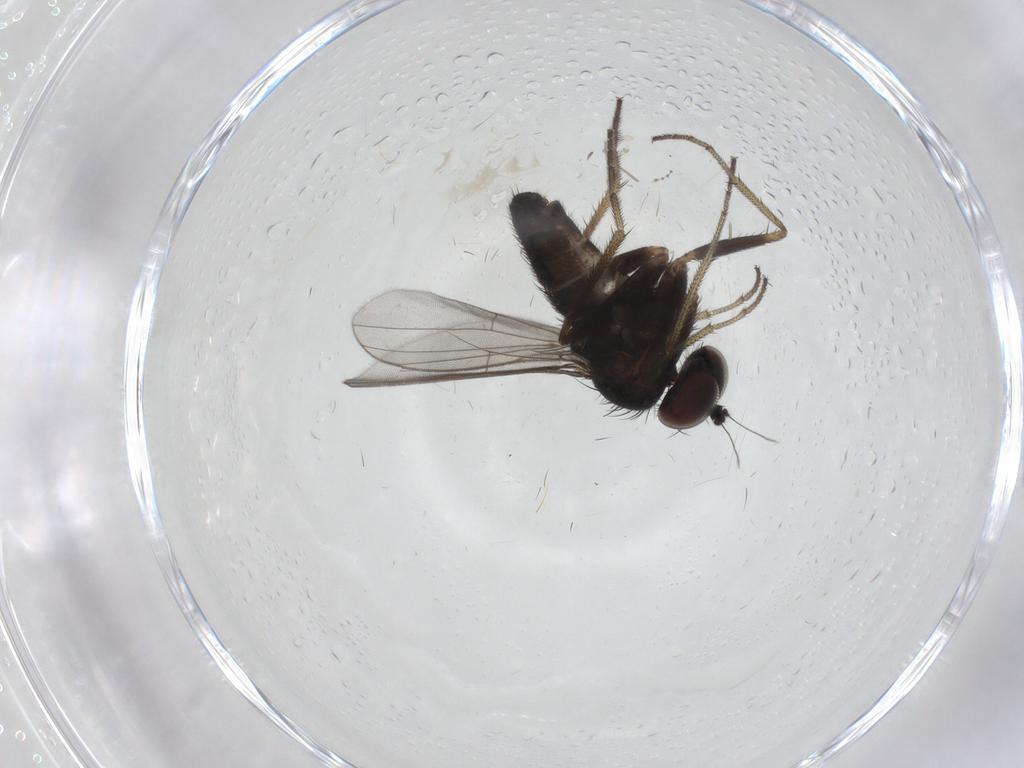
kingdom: Animalia
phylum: Arthropoda
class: Insecta
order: Diptera
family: Dolichopodidae
